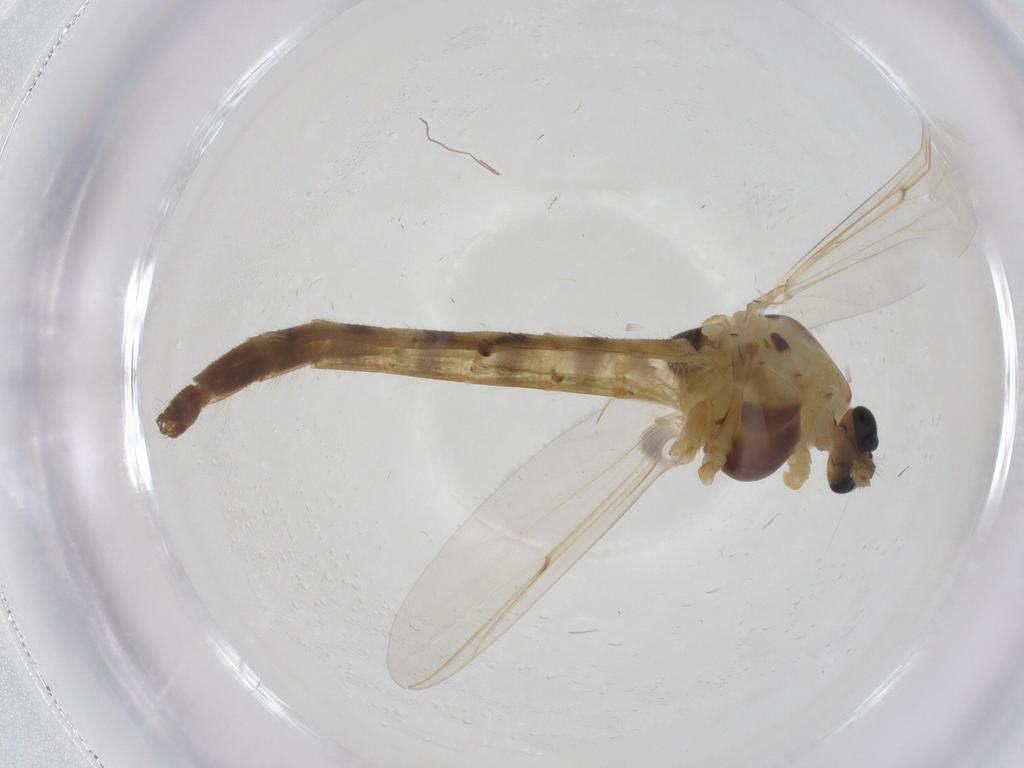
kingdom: Animalia
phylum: Arthropoda
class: Insecta
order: Diptera
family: Chironomidae
